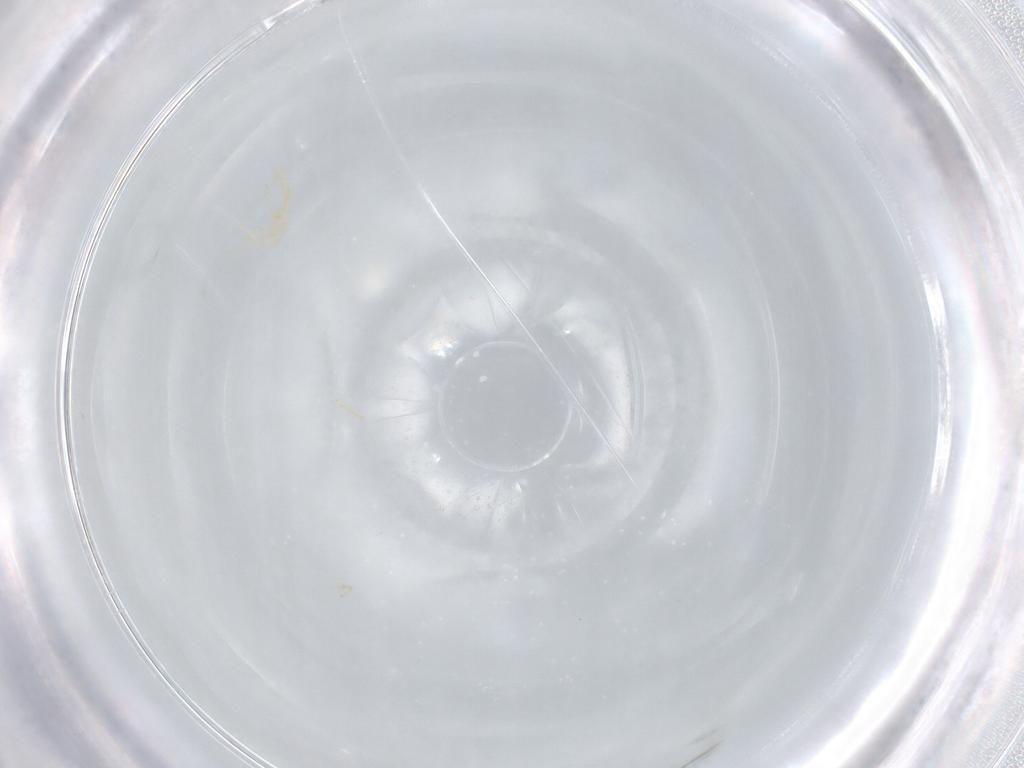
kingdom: Animalia
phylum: Arthropoda
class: Arachnida
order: Trombidiformes
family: Erythraeidae
